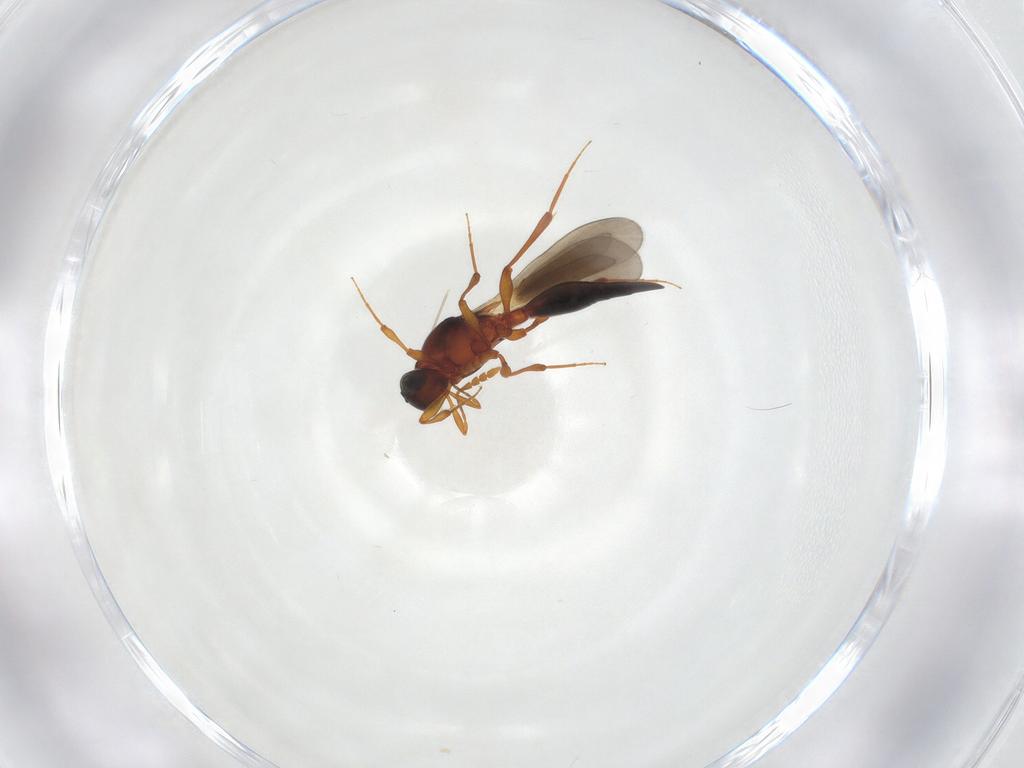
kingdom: Animalia
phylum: Arthropoda
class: Insecta
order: Hymenoptera
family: Platygastridae
